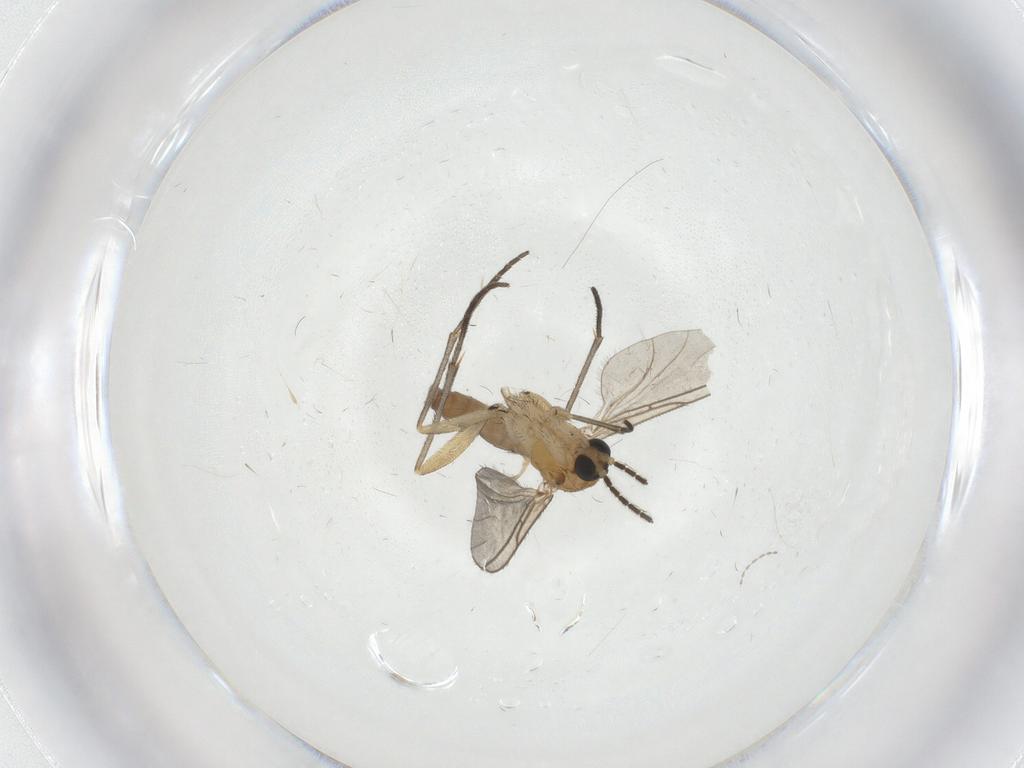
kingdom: Animalia
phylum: Arthropoda
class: Insecta
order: Diptera
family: Sciaridae
